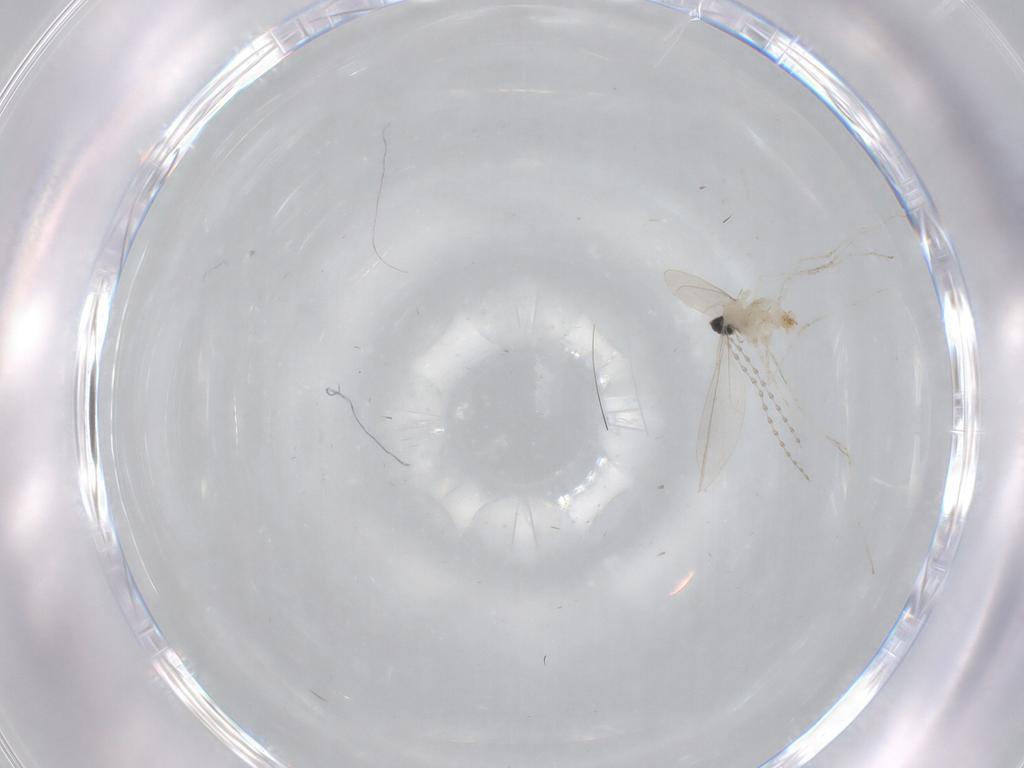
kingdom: Animalia
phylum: Arthropoda
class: Insecta
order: Diptera
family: Cecidomyiidae
